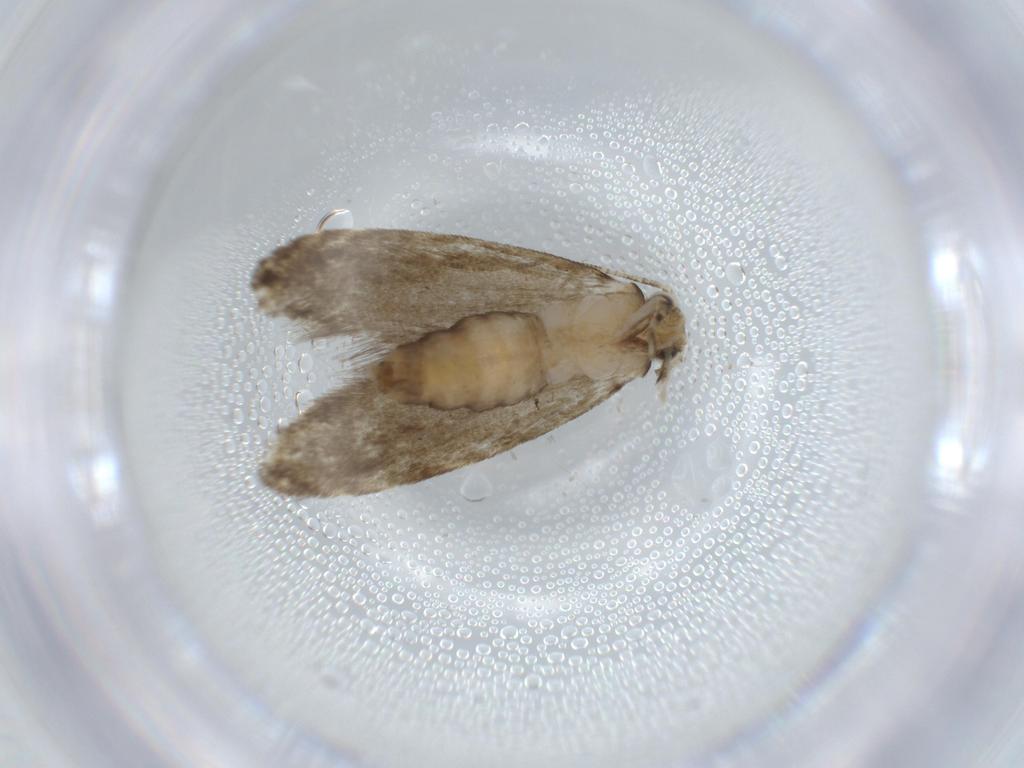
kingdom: Animalia
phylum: Arthropoda
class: Insecta
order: Lepidoptera
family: Tineidae
